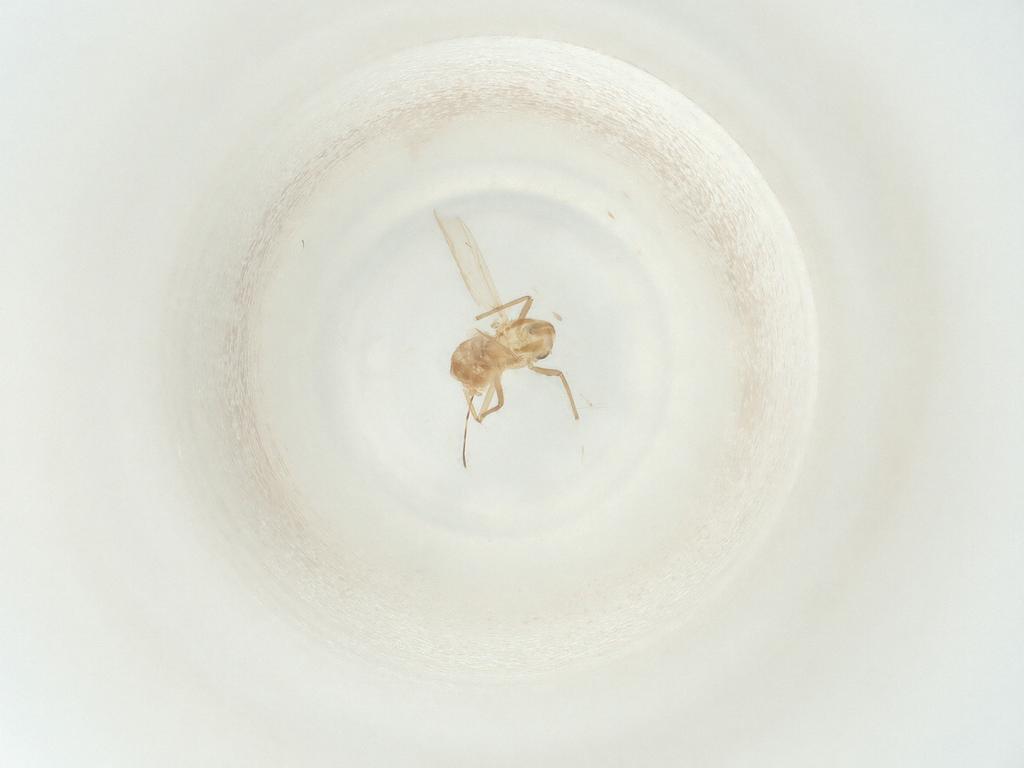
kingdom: Animalia
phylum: Arthropoda
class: Insecta
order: Diptera
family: Chironomidae
